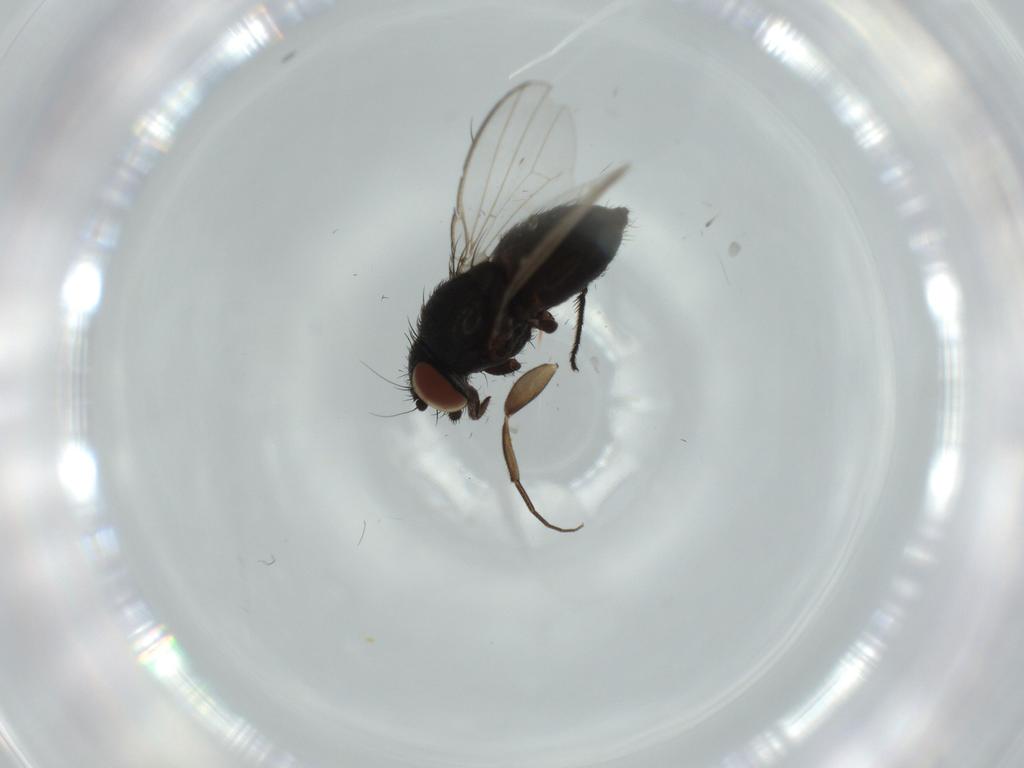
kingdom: Animalia
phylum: Arthropoda
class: Insecta
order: Diptera
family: Milichiidae
